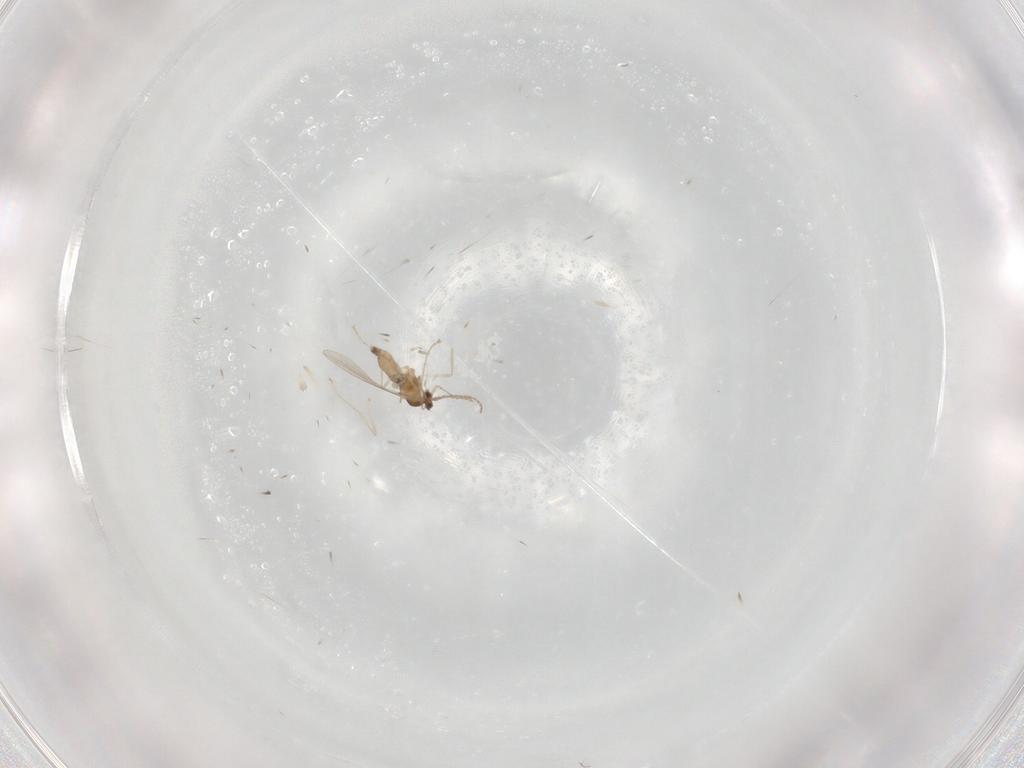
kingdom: Animalia
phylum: Arthropoda
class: Insecta
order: Diptera
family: Cecidomyiidae
